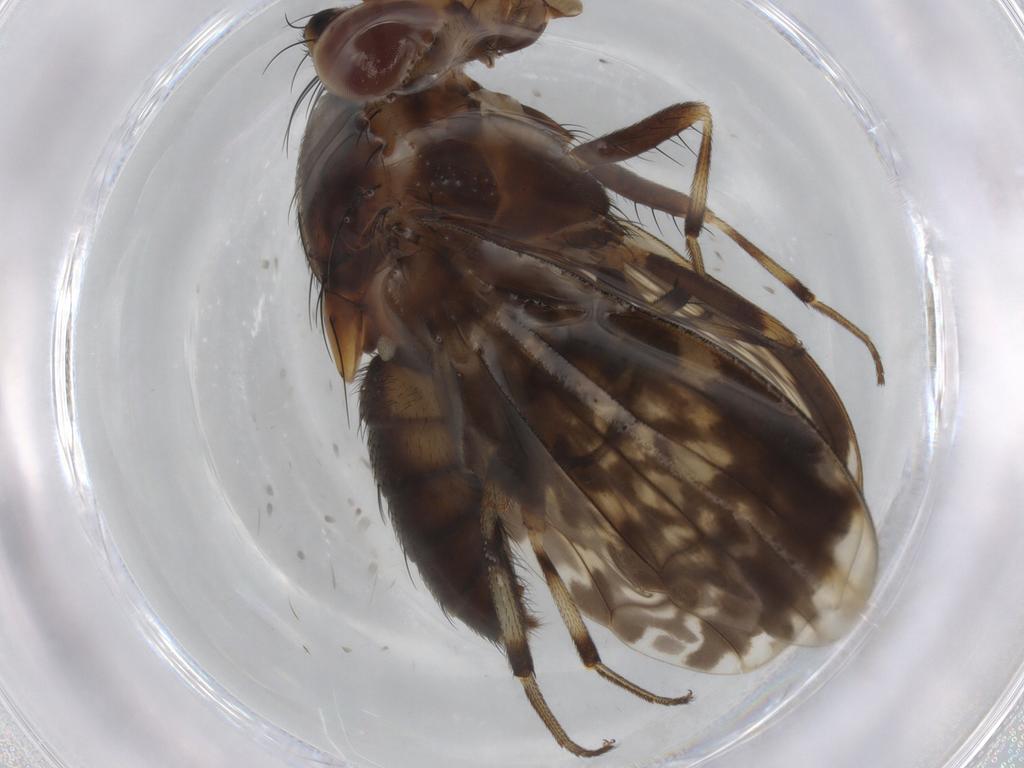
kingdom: Animalia
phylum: Arthropoda
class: Insecta
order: Diptera
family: Lauxaniidae
